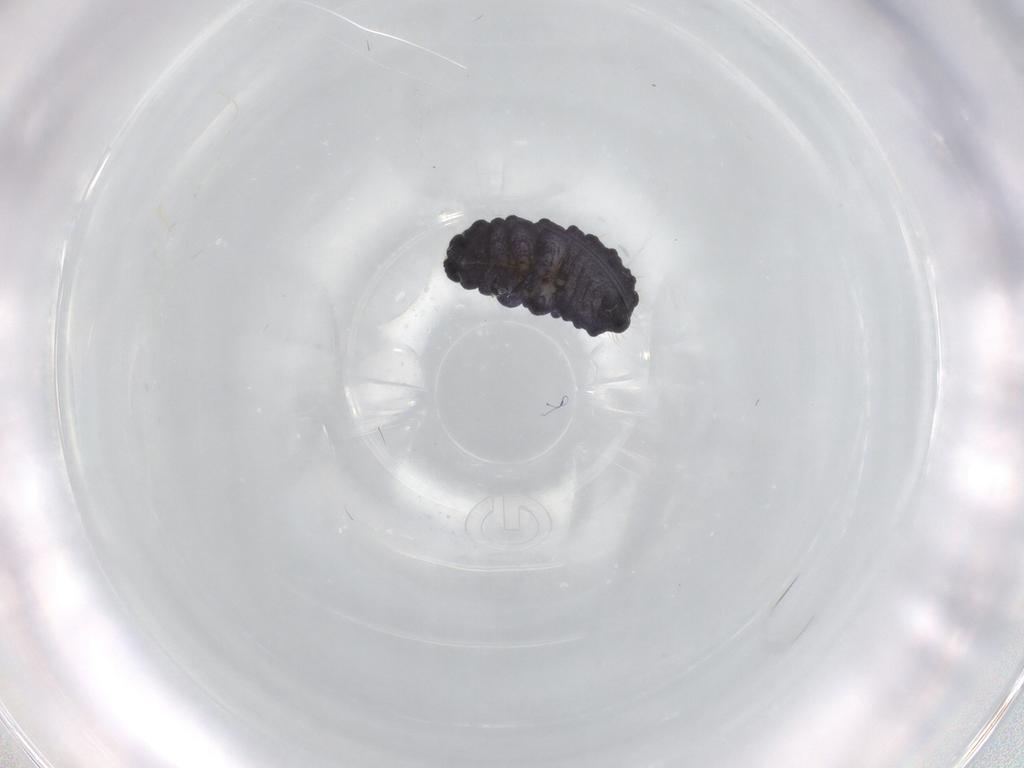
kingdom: Animalia
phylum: Arthropoda
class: Collembola
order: Poduromorpha
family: Neanuridae
